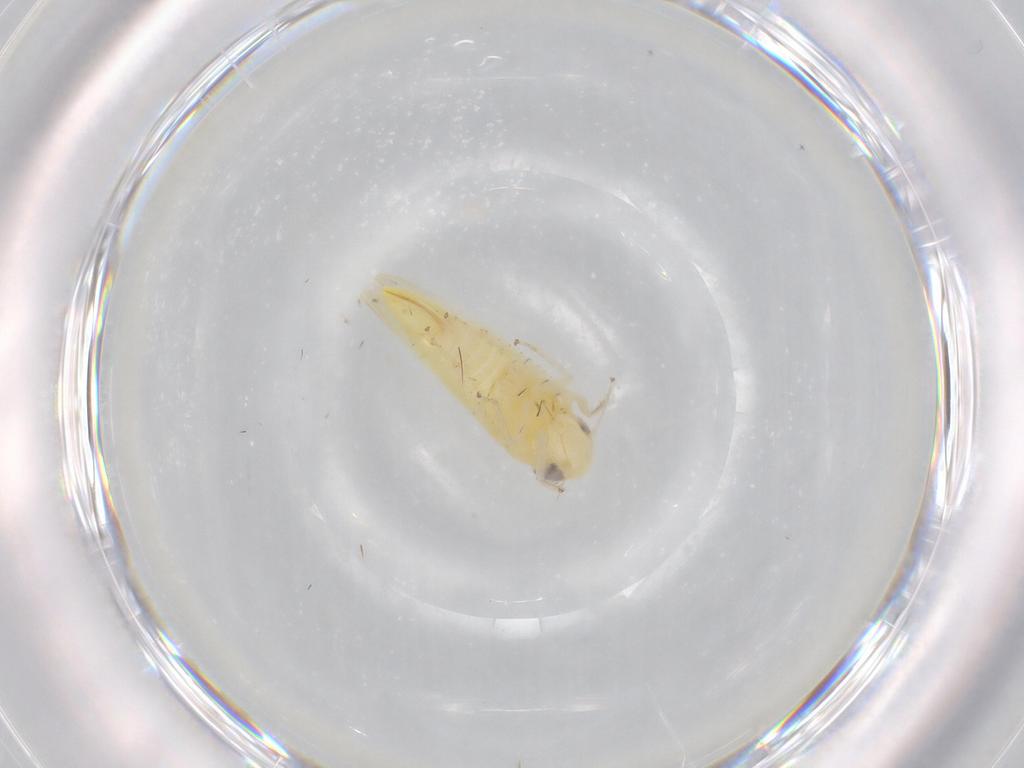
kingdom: Animalia
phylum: Arthropoda
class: Insecta
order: Hemiptera
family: Cicadellidae
